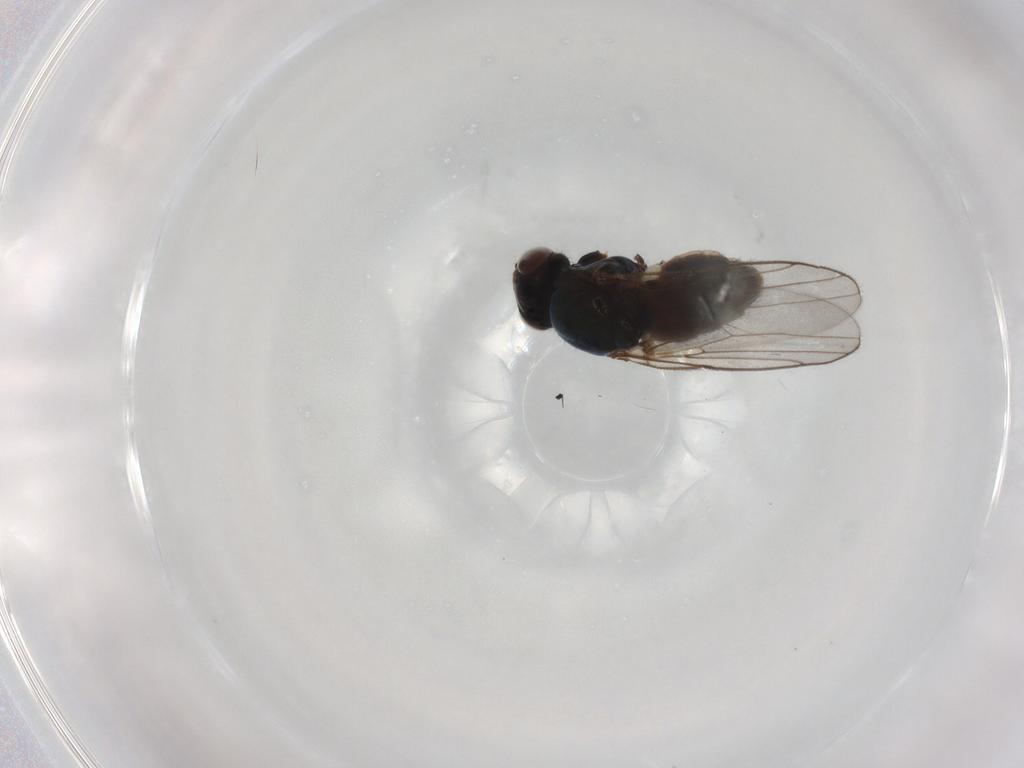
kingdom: Animalia
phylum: Arthropoda
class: Insecta
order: Diptera
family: Chloropidae
